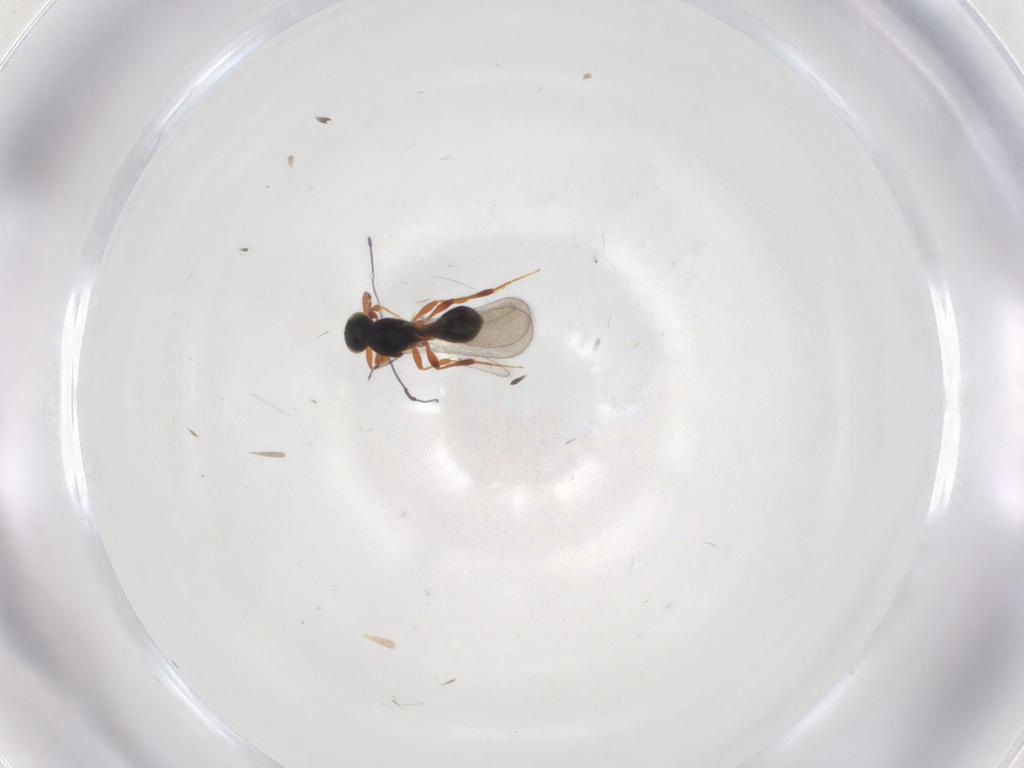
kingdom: Animalia
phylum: Arthropoda
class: Insecta
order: Hymenoptera
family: Platygastridae
